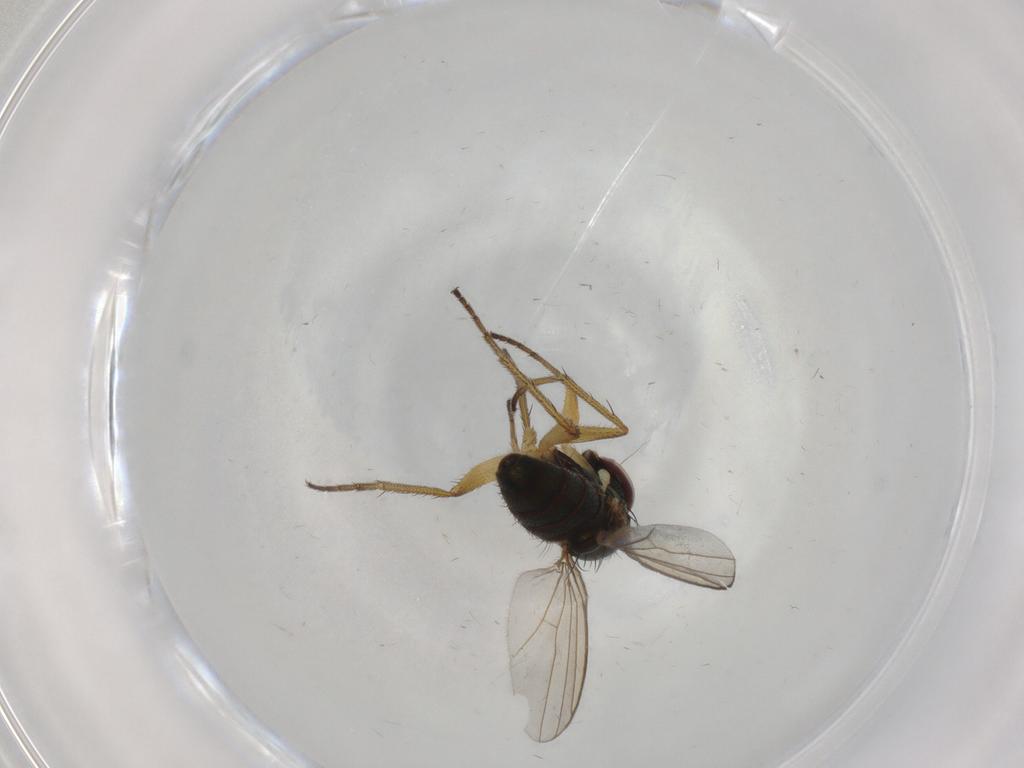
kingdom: Animalia
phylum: Arthropoda
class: Insecta
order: Diptera
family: Dolichopodidae
